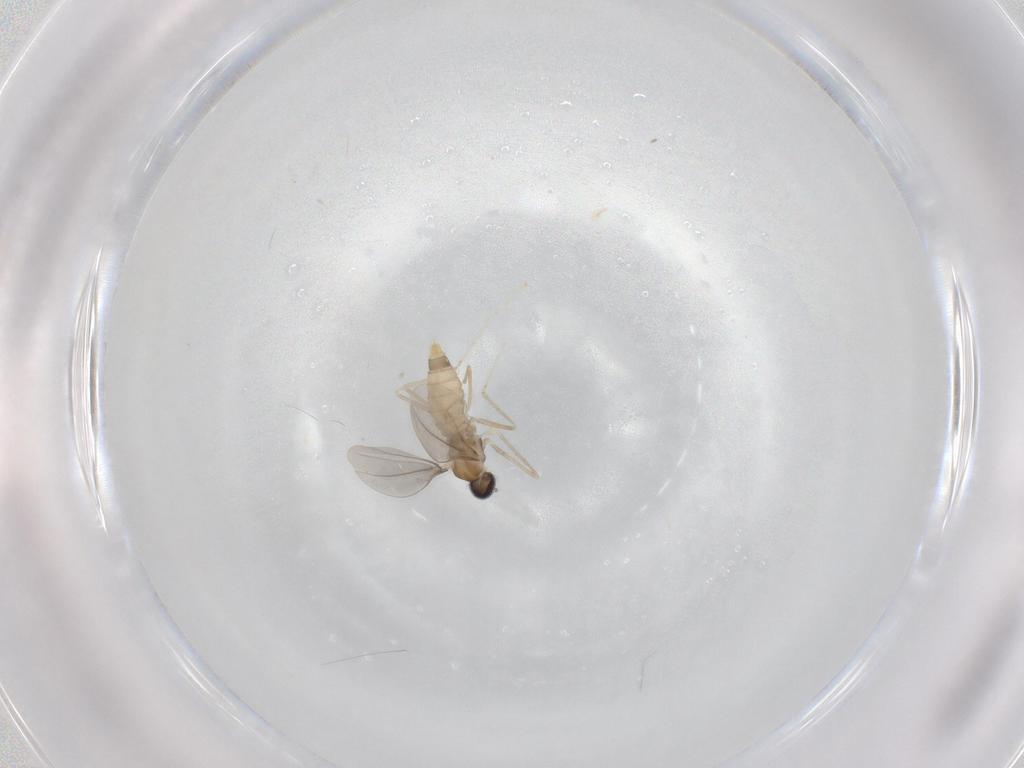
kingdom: Animalia
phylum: Arthropoda
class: Insecta
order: Diptera
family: Cecidomyiidae
